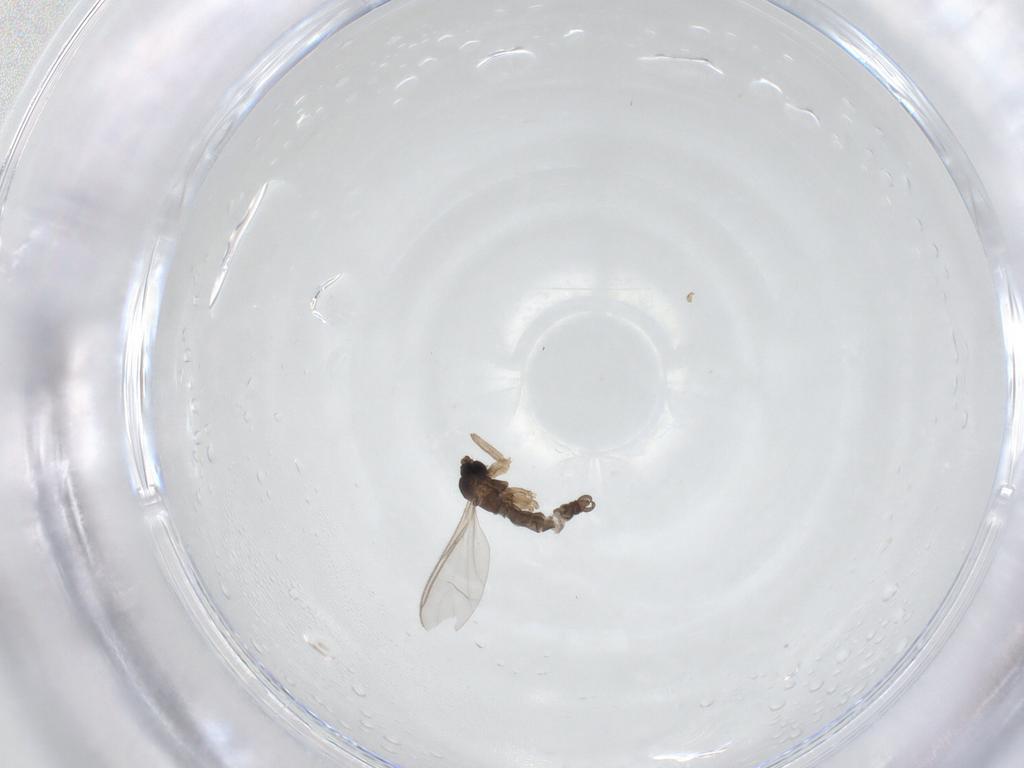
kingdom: Animalia
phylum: Arthropoda
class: Insecta
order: Diptera
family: Sciaridae
